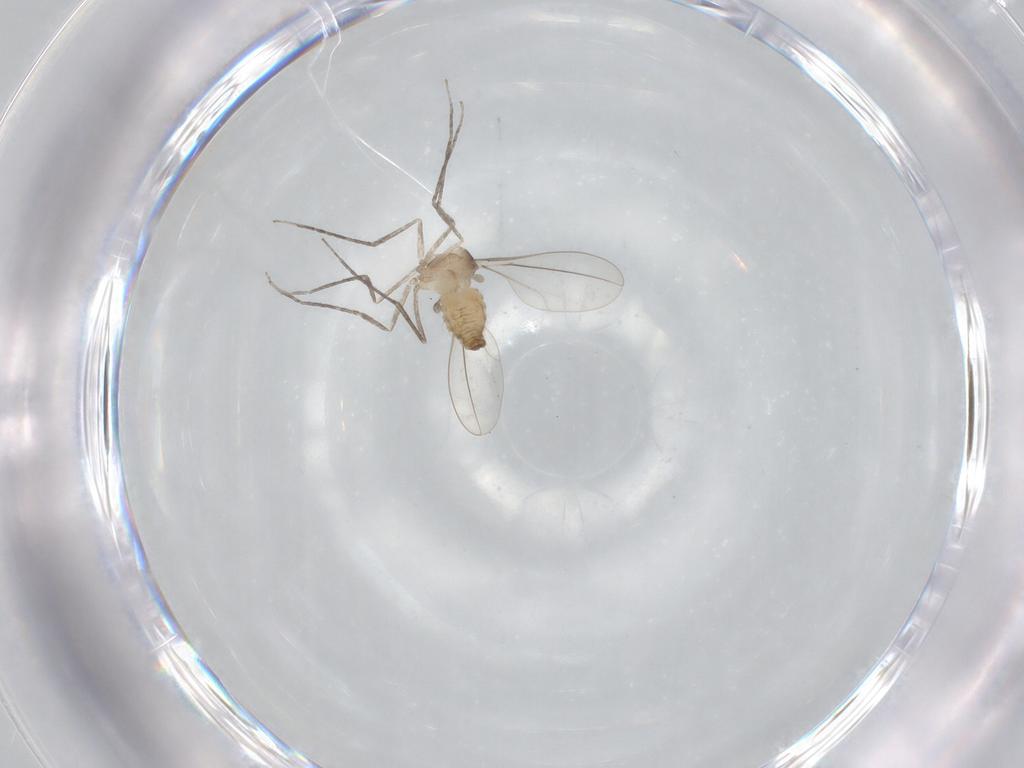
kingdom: Animalia
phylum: Arthropoda
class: Insecta
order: Diptera
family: Cecidomyiidae
